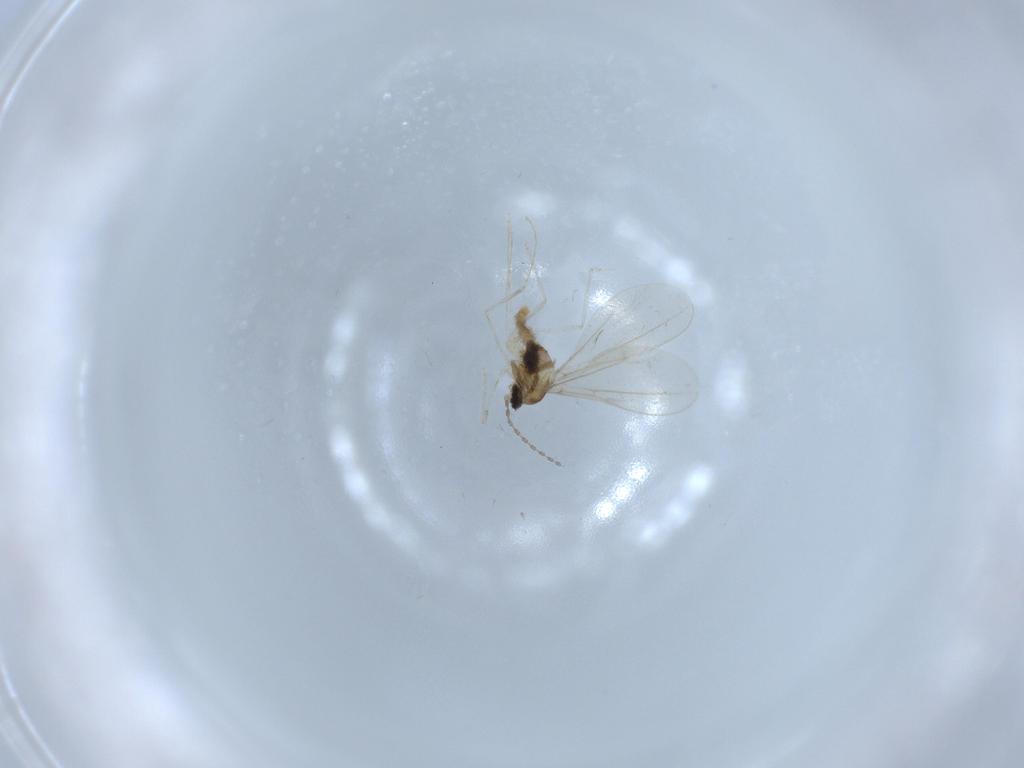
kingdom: Animalia
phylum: Arthropoda
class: Insecta
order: Diptera
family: Cecidomyiidae
